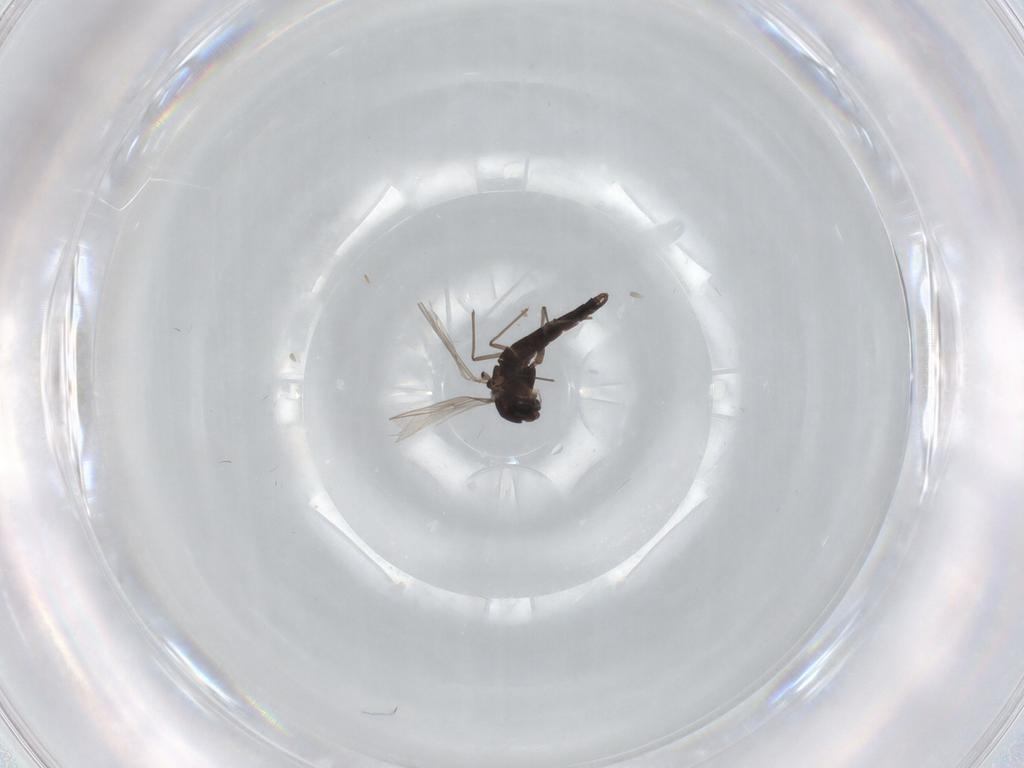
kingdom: Animalia
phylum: Arthropoda
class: Insecta
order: Diptera
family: Chironomidae
